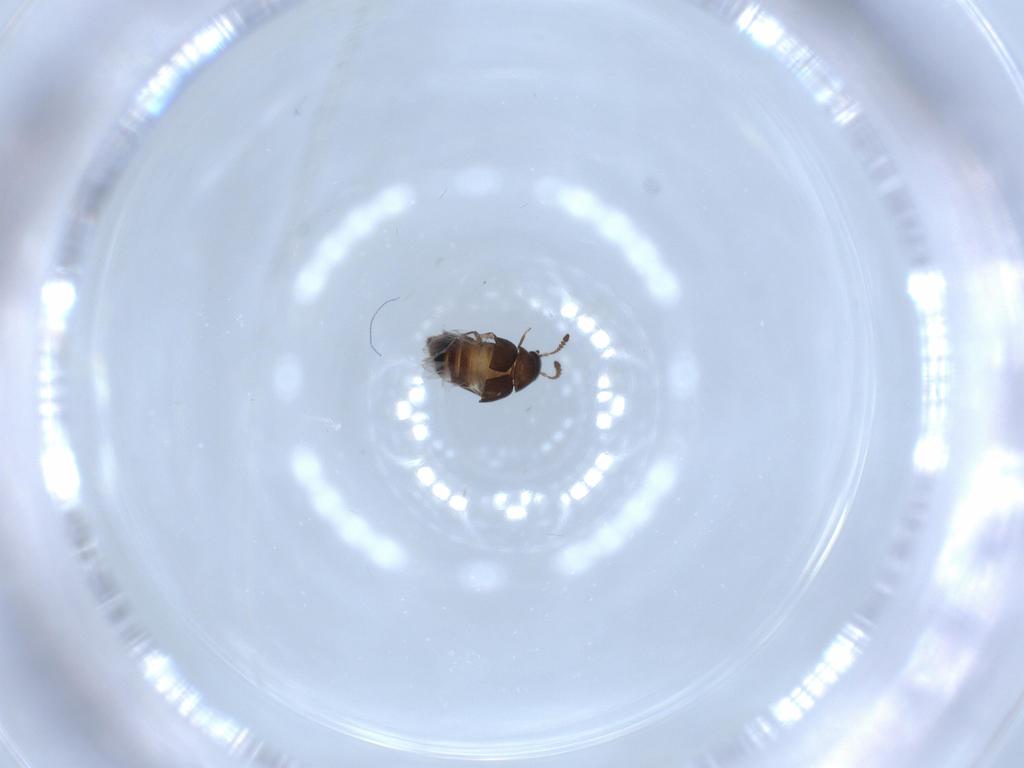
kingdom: Animalia
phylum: Arthropoda
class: Insecta
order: Coleoptera
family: Staphylinidae
